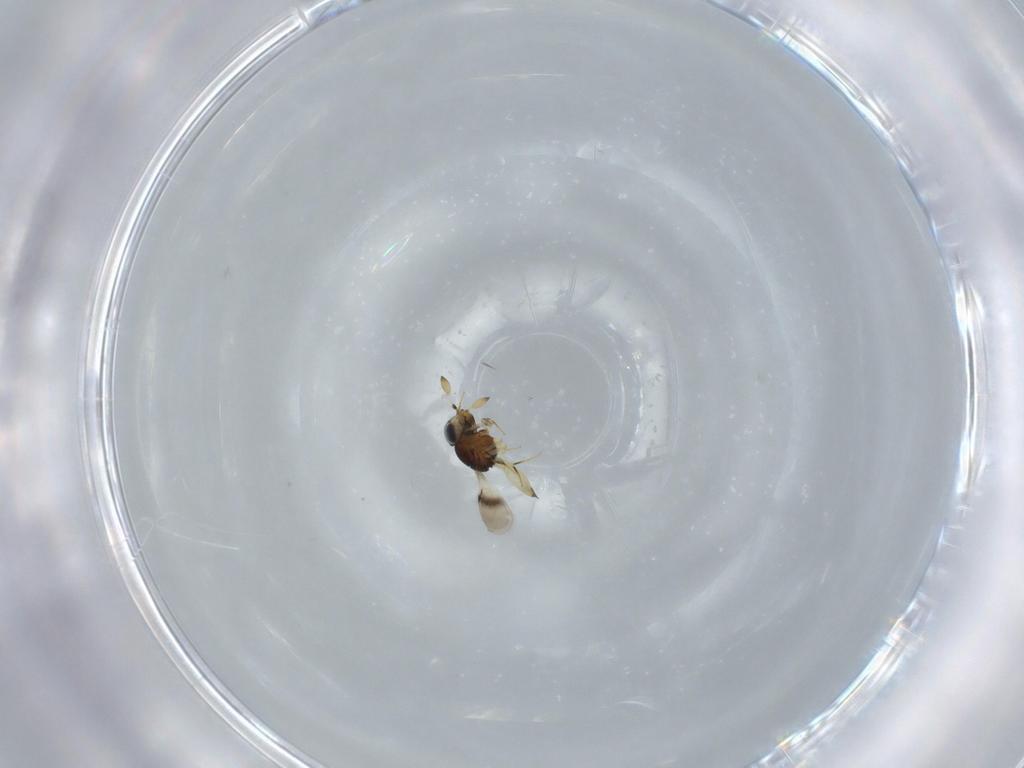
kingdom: Animalia
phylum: Arthropoda
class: Insecta
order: Hymenoptera
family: Scelionidae
